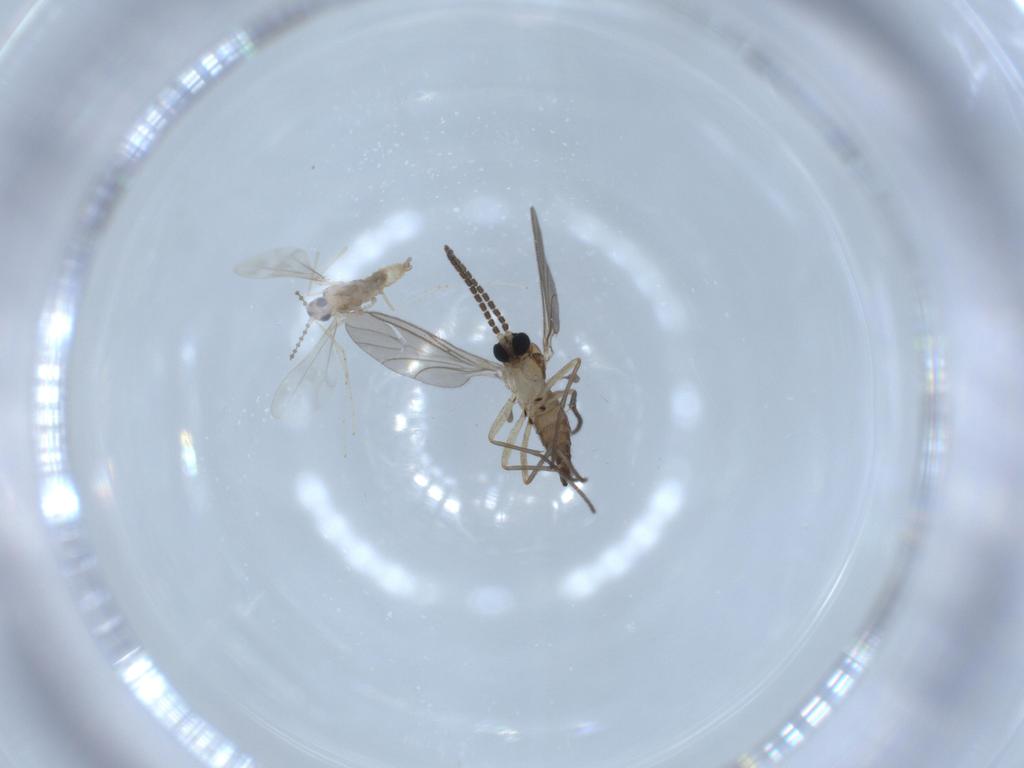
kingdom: Animalia
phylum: Arthropoda
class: Insecta
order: Diptera
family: Cecidomyiidae
